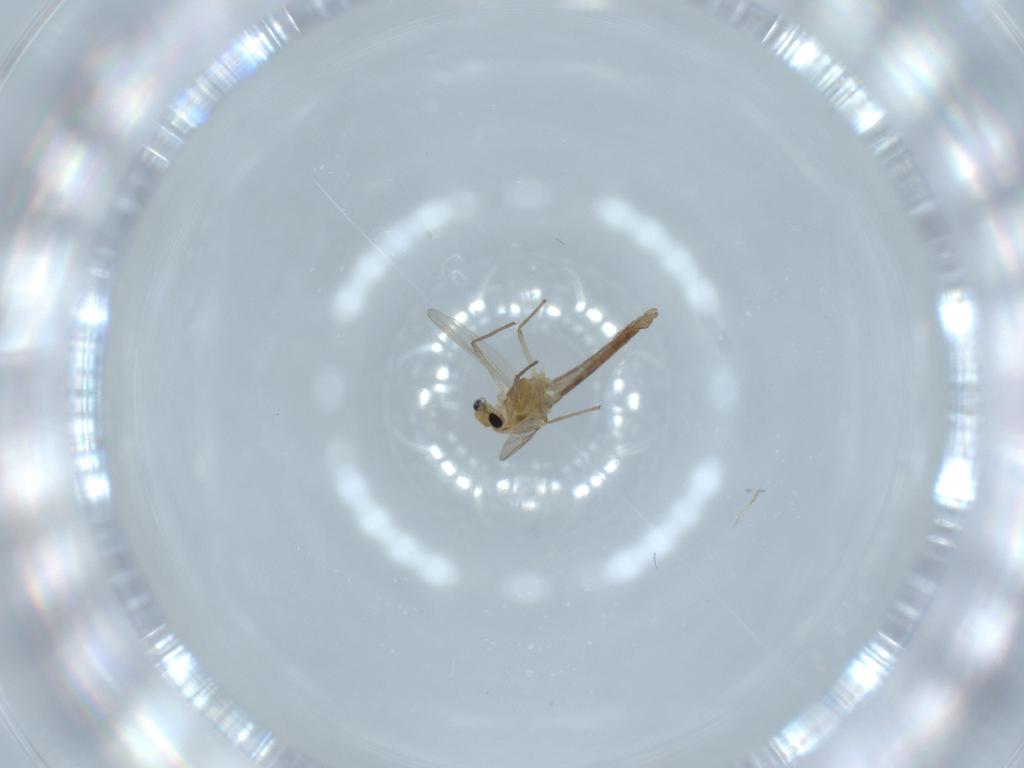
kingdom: Animalia
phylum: Arthropoda
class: Insecta
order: Diptera
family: Chironomidae
